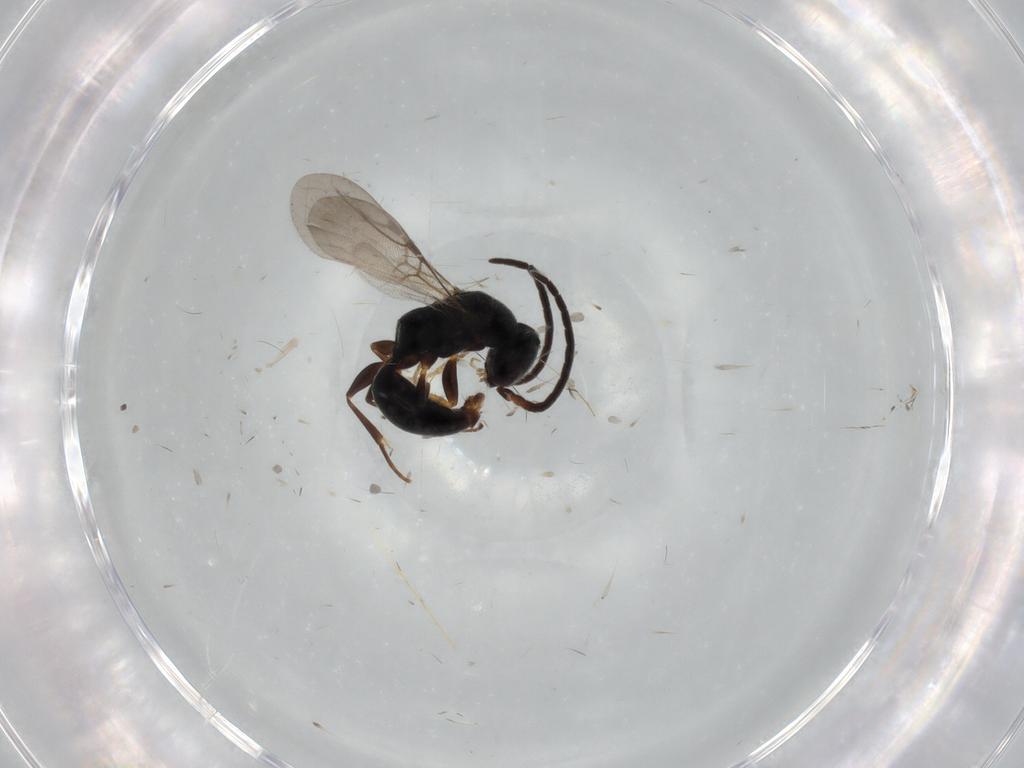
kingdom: Animalia
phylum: Arthropoda
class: Insecta
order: Hymenoptera
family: Bethylidae
